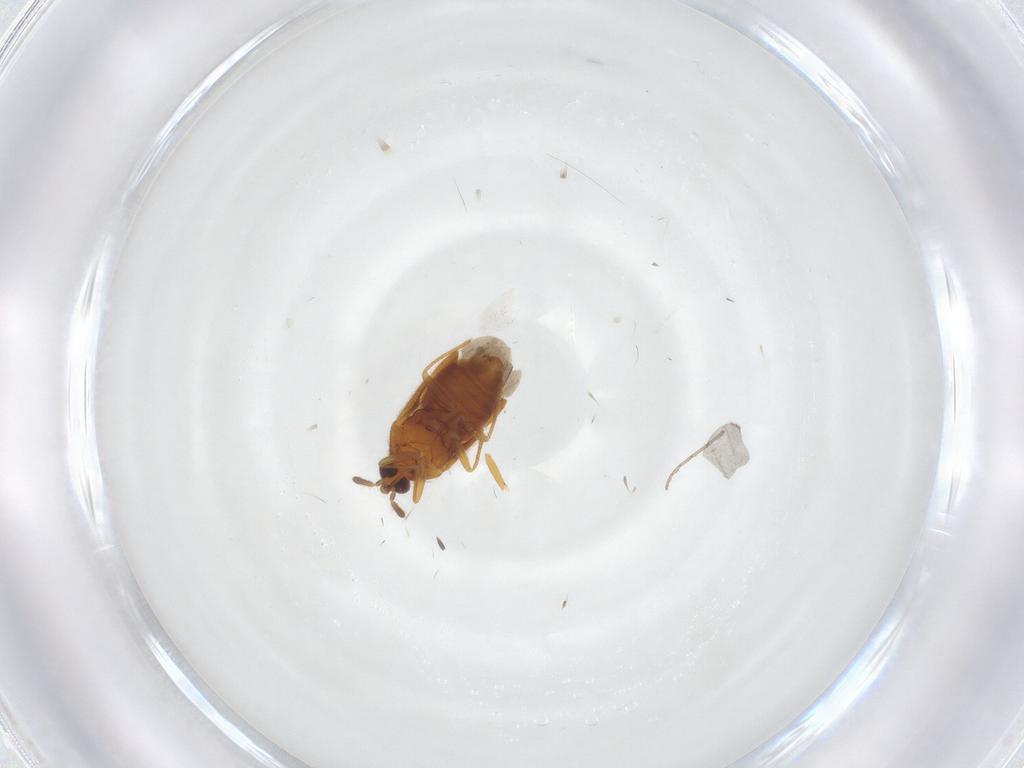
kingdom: Animalia
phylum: Arthropoda
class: Insecta
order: Hemiptera
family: Anthocoridae
